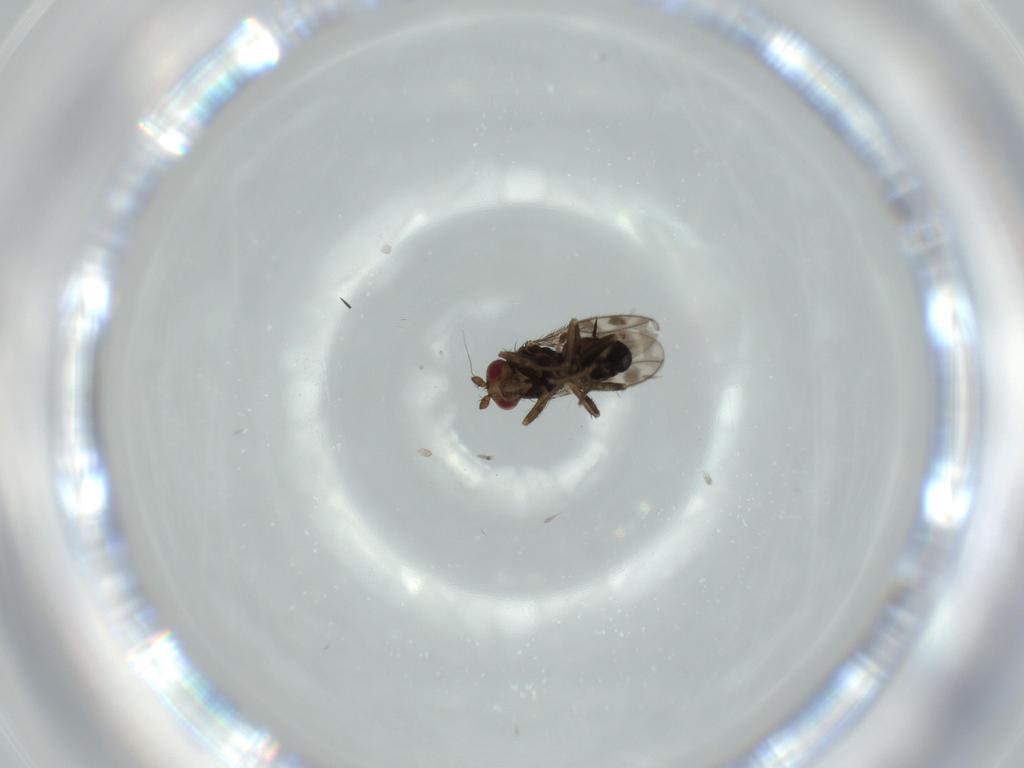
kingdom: Animalia
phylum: Arthropoda
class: Insecta
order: Diptera
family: Sphaeroceridae
